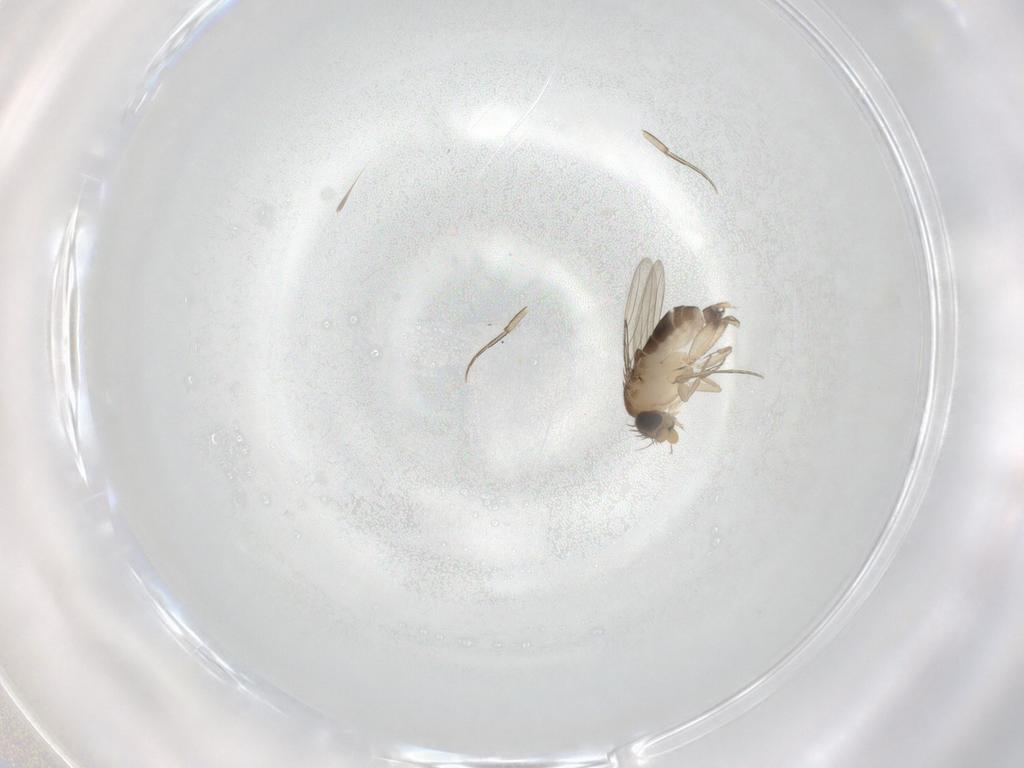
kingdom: Animalia
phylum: Arthropoda
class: Insecta
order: Diptera
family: Phoridae
